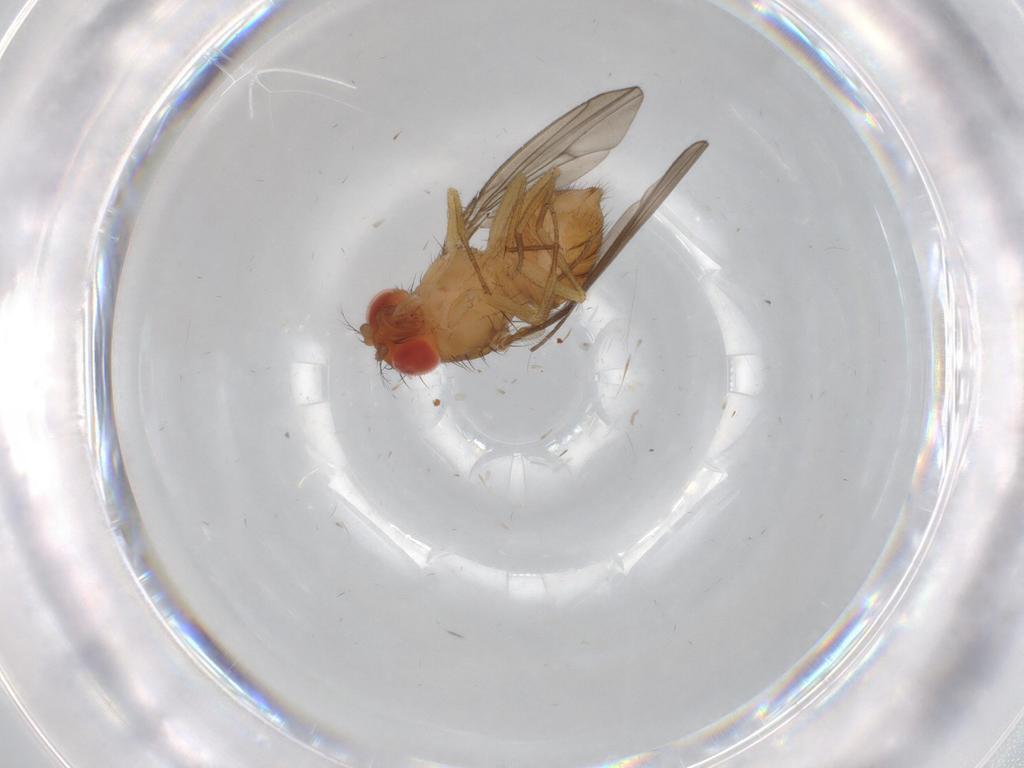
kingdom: Animalia
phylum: Arthropoda
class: Insecta
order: Diptera
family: Drosophilidae
